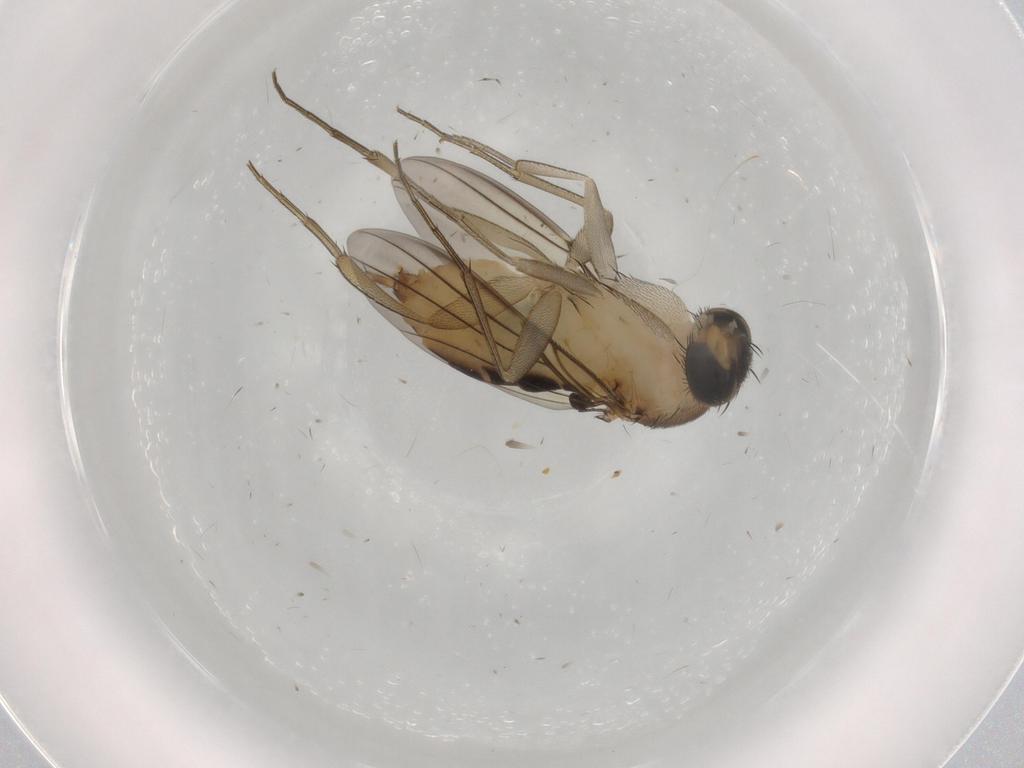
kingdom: Animalia
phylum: Arthropoda
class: Insecta
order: Diptera
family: Phoridae
